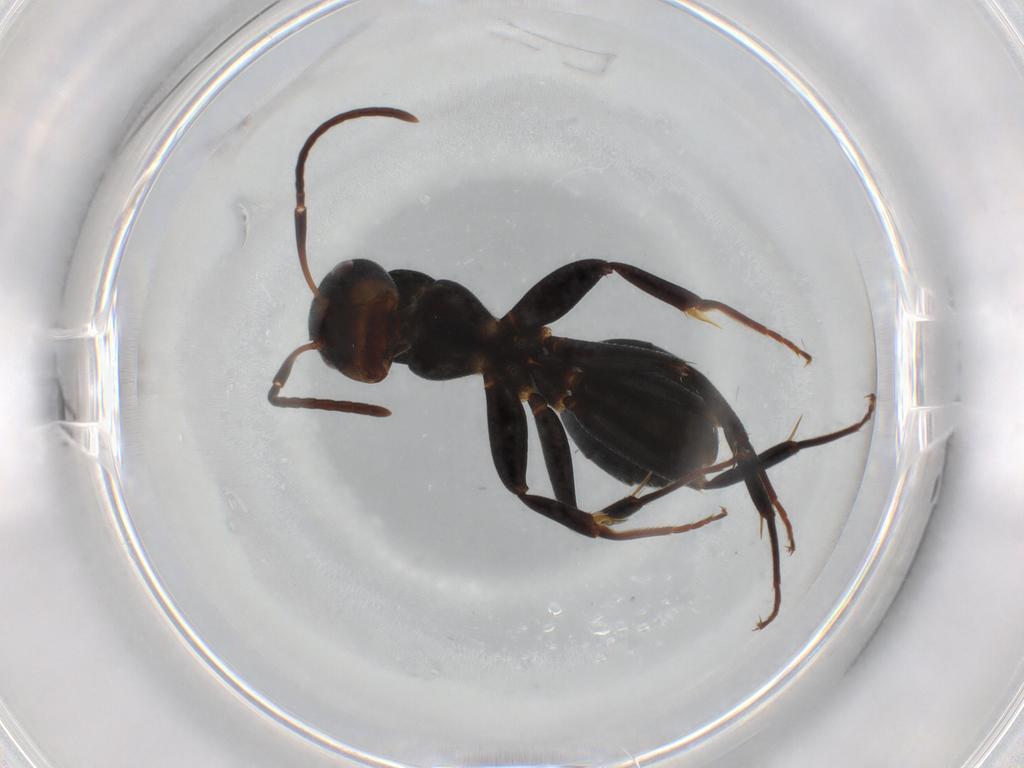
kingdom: Animalia
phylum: Arthropoda
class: Insecta
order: Hymenoptera
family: Formicidae
